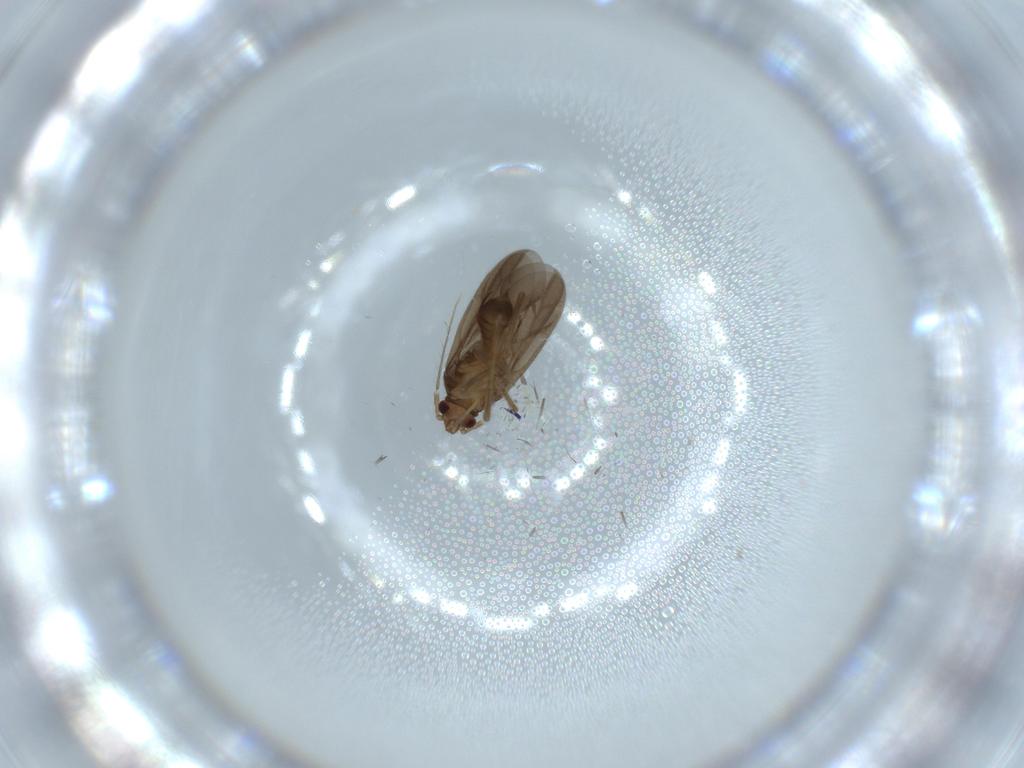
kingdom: Animalia
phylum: Arthropoda
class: Insecta
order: Hemiptera
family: Ceratocombidae
